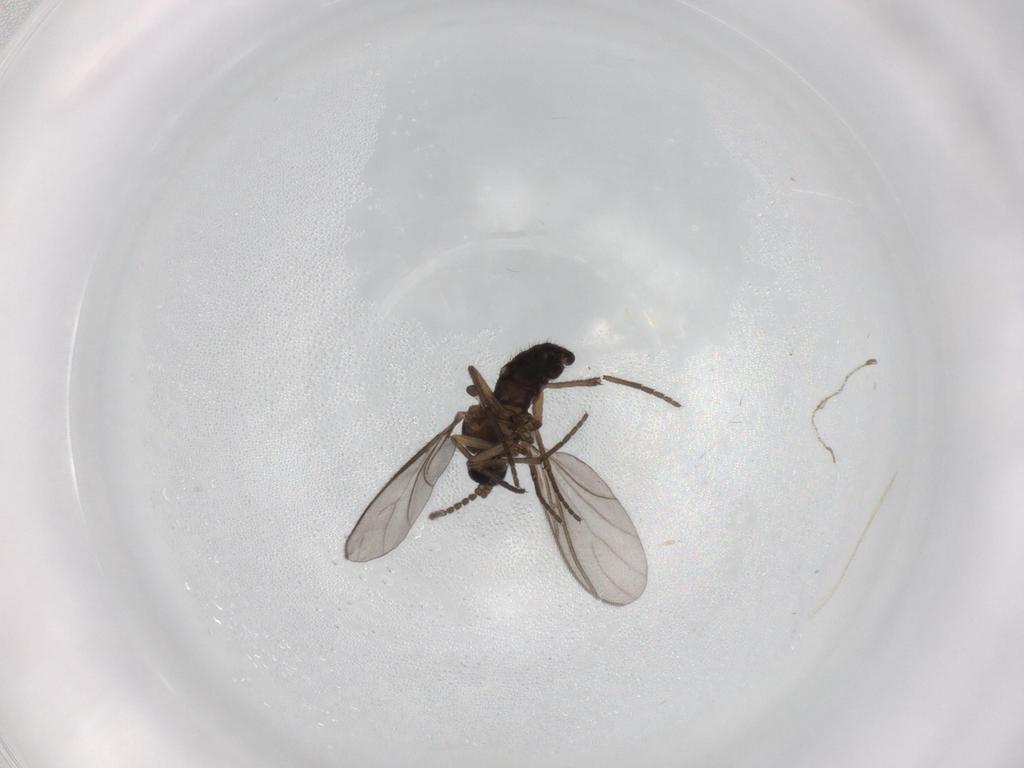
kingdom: Animalia
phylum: Arthropoda
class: Insecta
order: Diptera
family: Sciaridae
